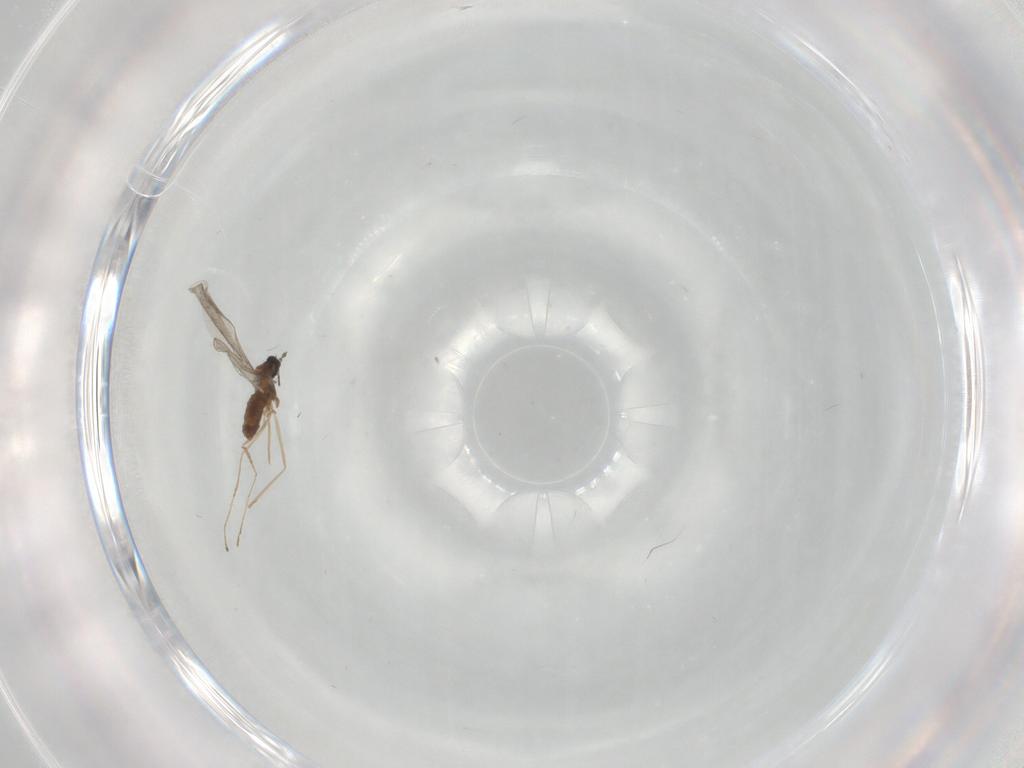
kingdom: Animalia
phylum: Arthropoda
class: Insecta
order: Diptera
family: Cecidomyiidae
